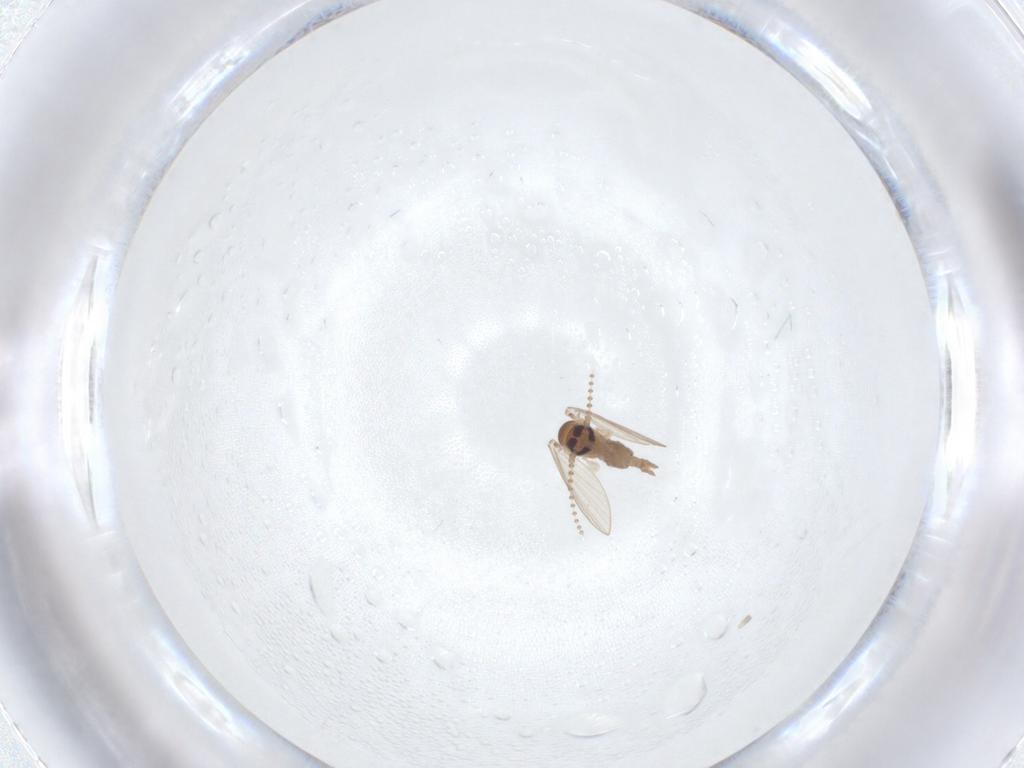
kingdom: Animalia
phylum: Arthropoda
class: Insecta
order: Diptera
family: Psychodidae
